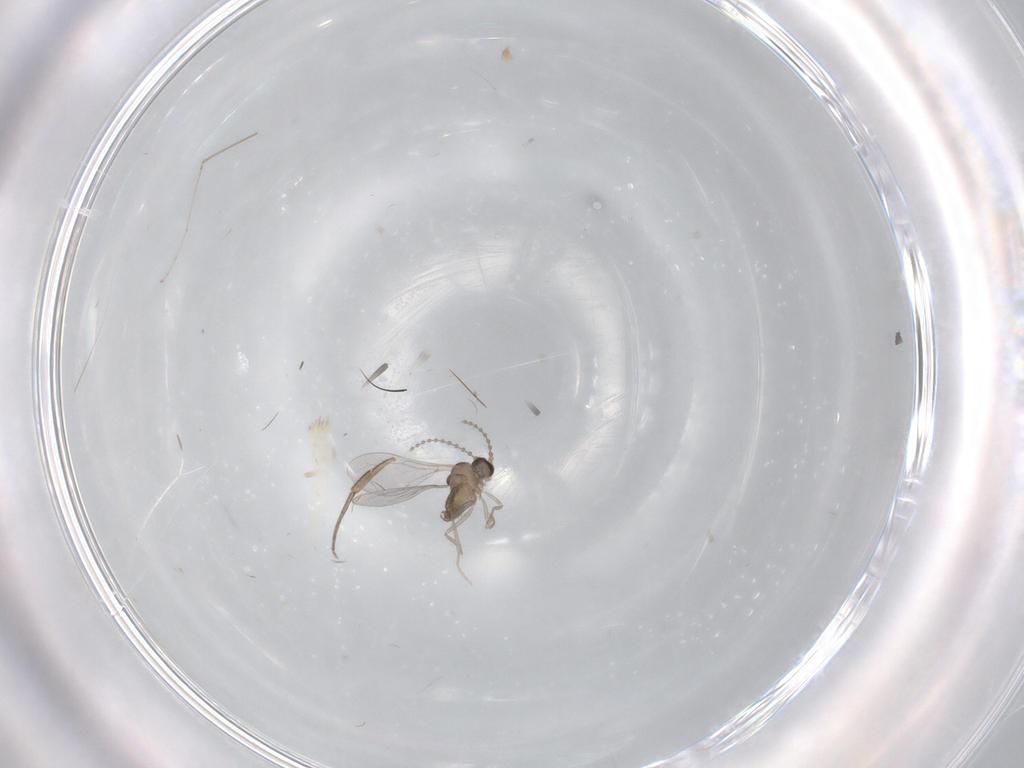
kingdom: Animalia
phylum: Arthropoda
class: Insecta
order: Diptera
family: Cecidomyiidae
